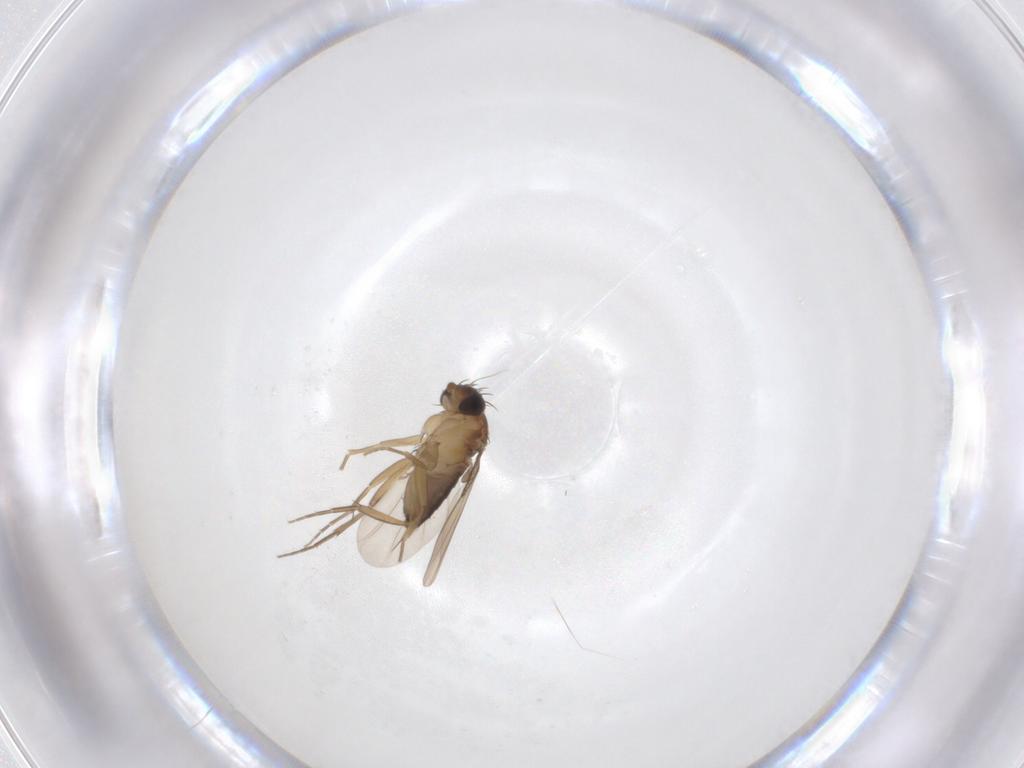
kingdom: Animalia
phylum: Arthropoda
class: Insecta
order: Diptera
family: Phoridae
